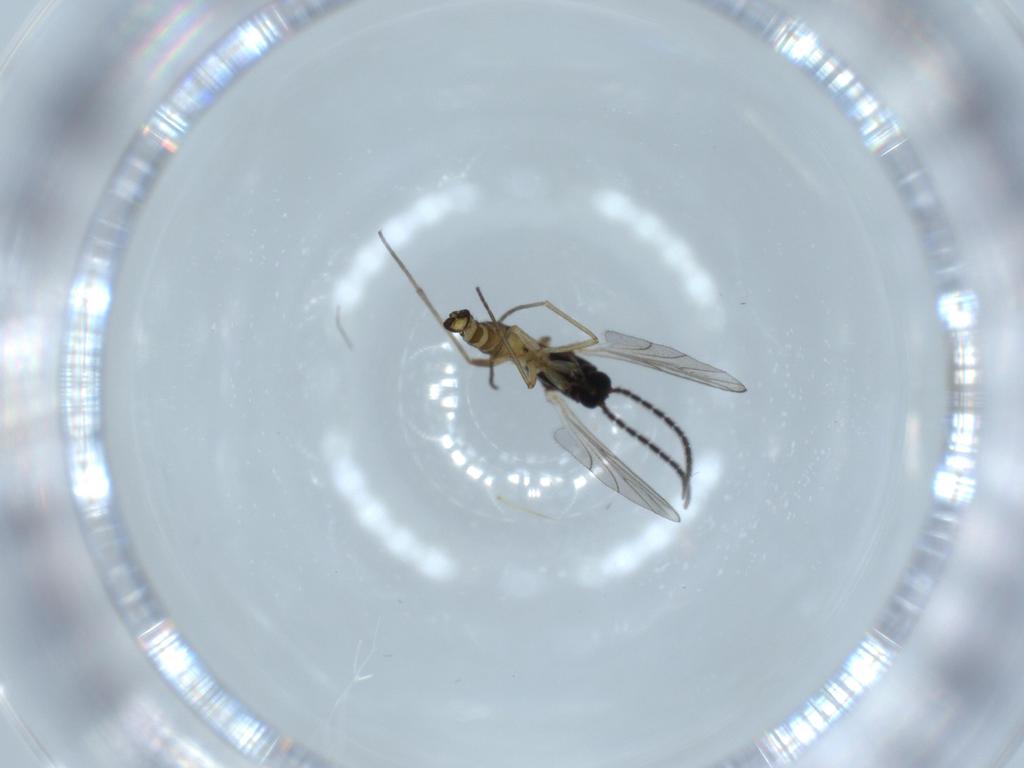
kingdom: Animalia
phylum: Arthropoda
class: Insecta
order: Diptera
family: Sciaridae
